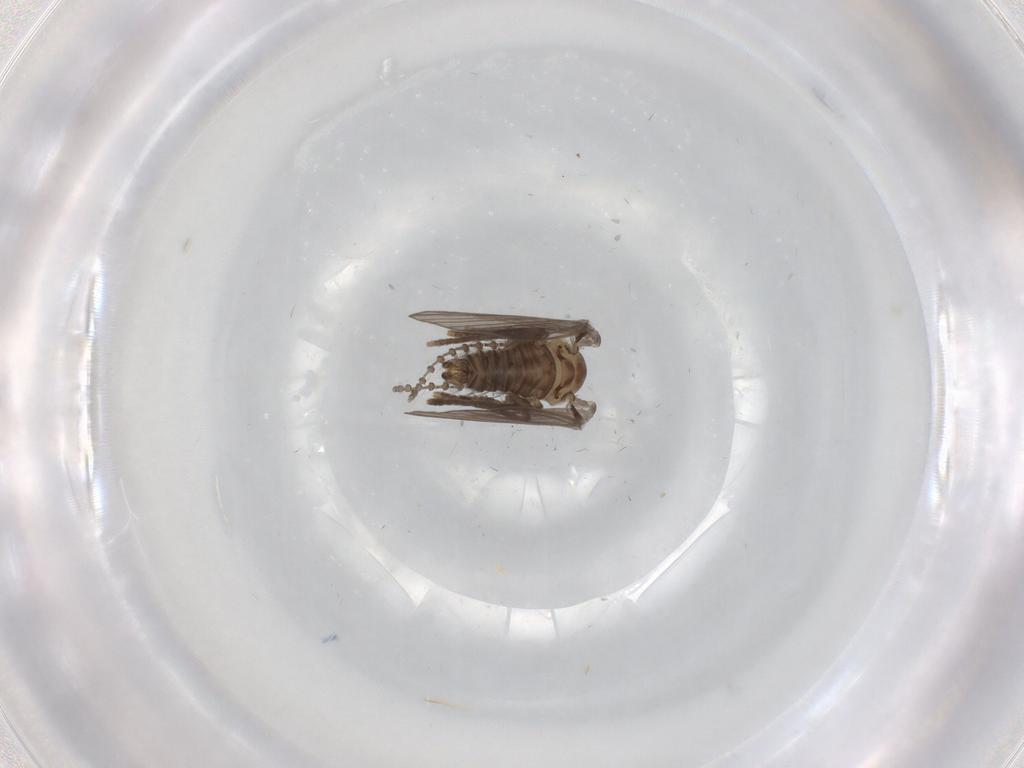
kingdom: Animalia
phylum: Arthropoda
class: Insecta
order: Diptera
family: Psychodidae
